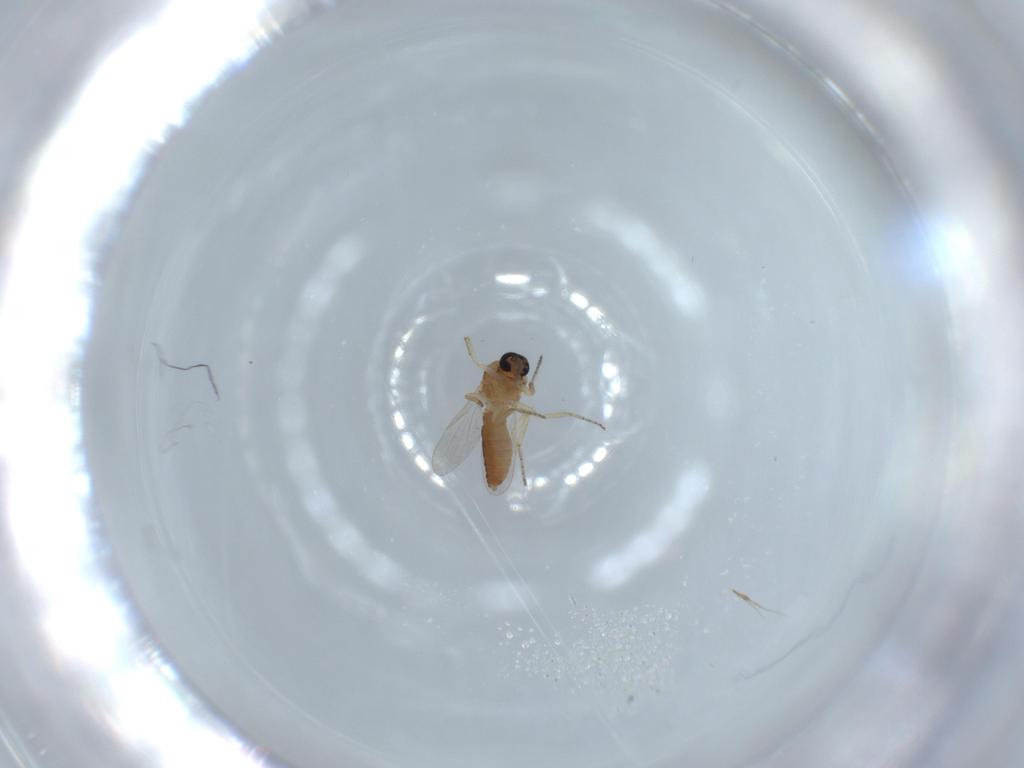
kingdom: Animalia
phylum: Arthropoda
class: Insecta
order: Diptera
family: Ceratopogonidae
